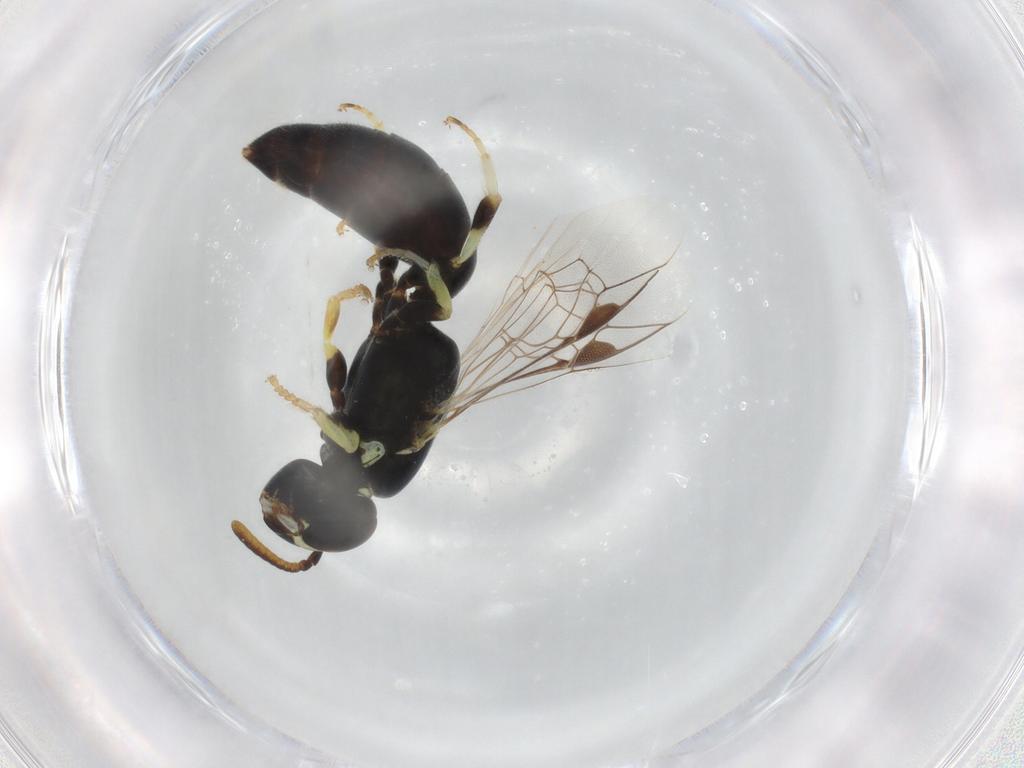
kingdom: Animalia
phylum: Arthropoda
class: Insecta
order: Hymenoptera
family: Colletidae
